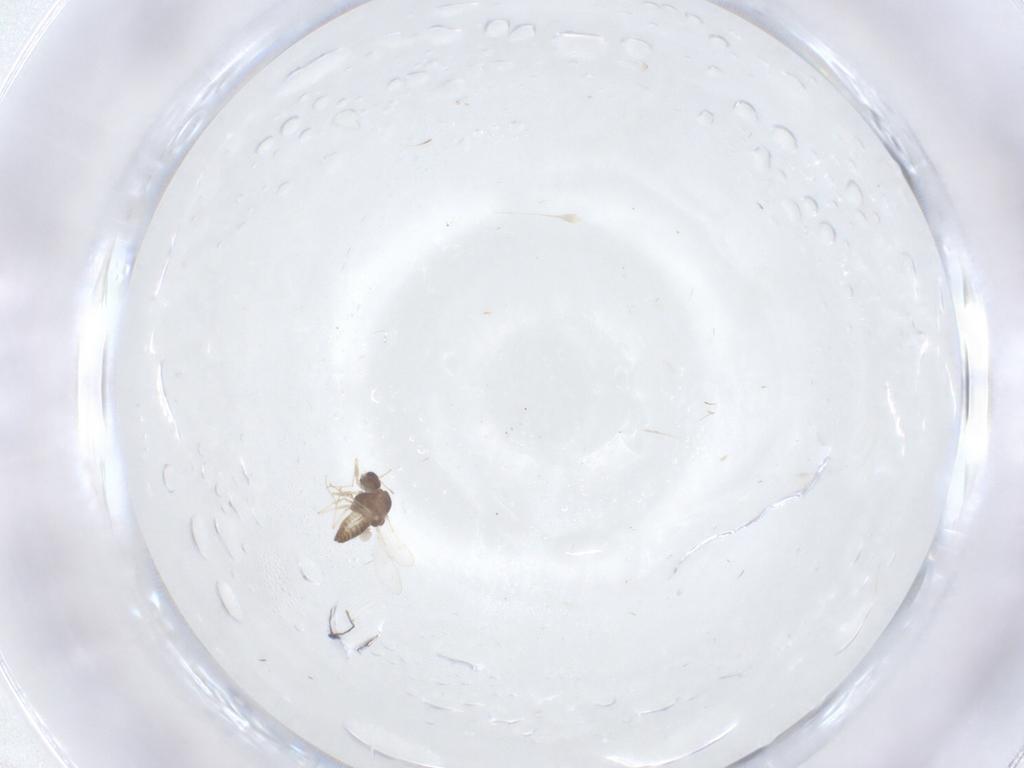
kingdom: Animalia
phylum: Arthropoda
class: Insecta
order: Diptera
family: Chironomidae
